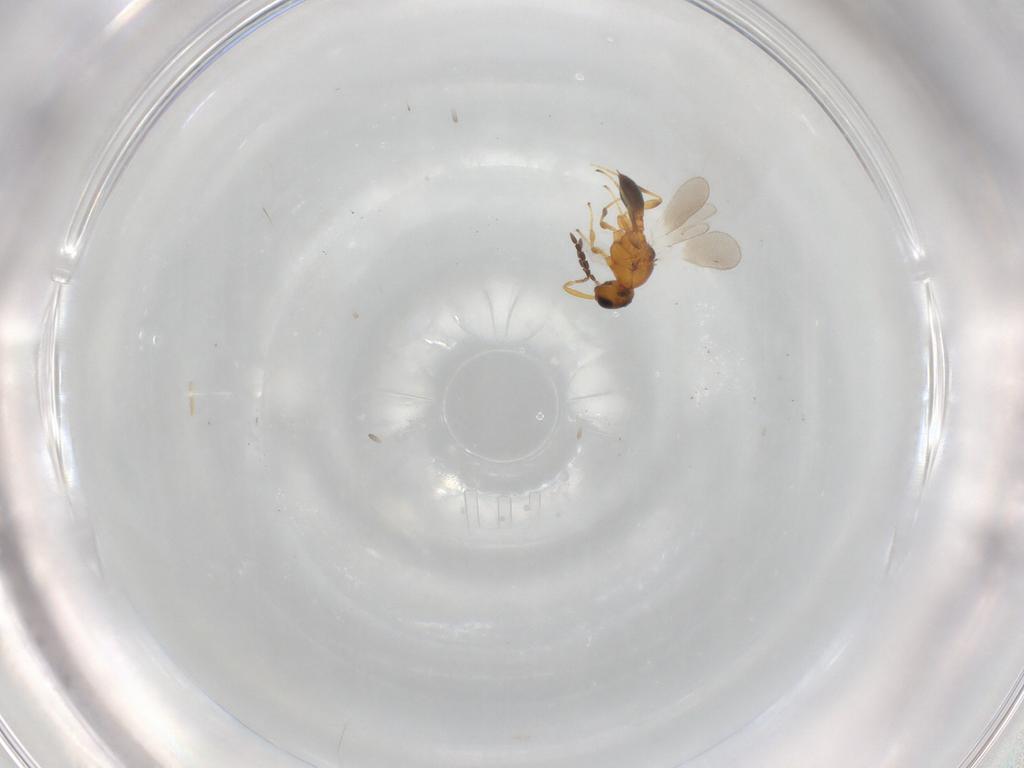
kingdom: Animalia
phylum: Arthropoda
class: Insecta
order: Hymenoptera
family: Platygastridae
